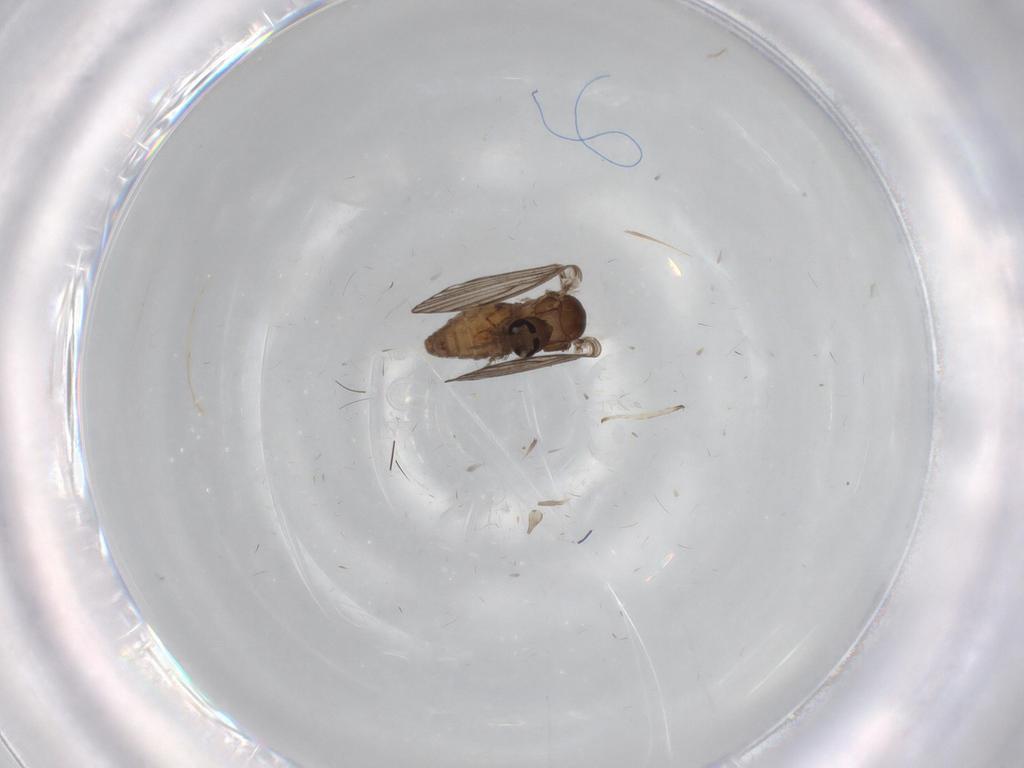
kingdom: Animalia
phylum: Arthropoda
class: Insecta
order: Diptera
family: Psychodidae
